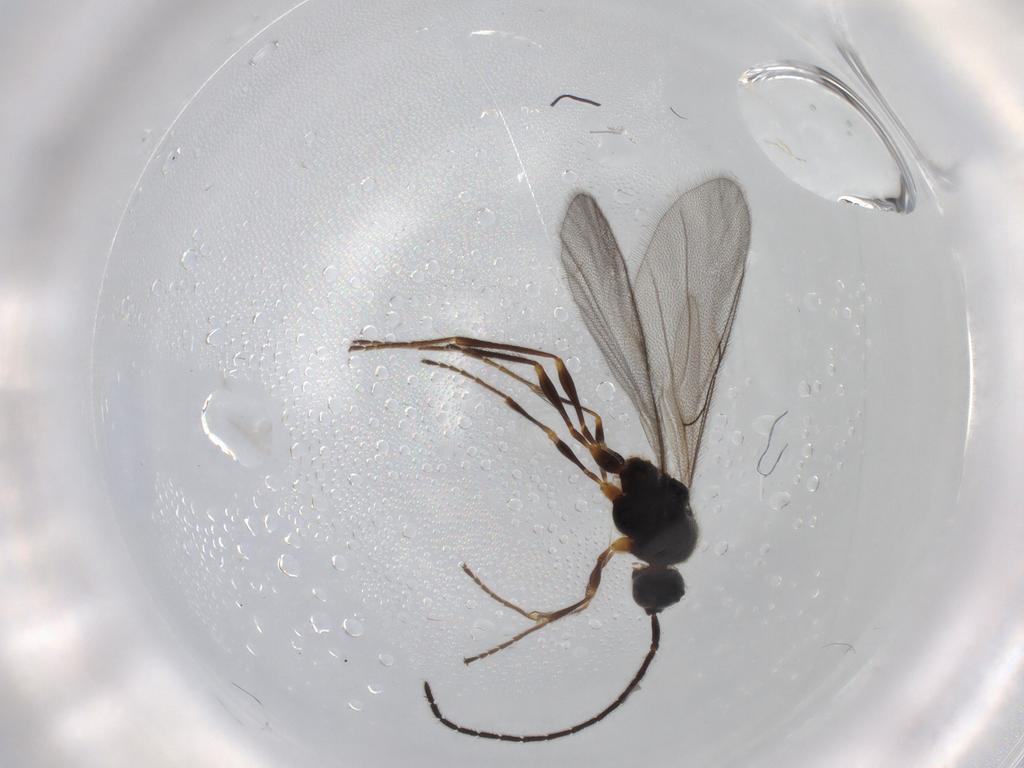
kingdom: Animalia
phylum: Arthropoda
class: Insecta
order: Hymenoptera
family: Diapriidae
